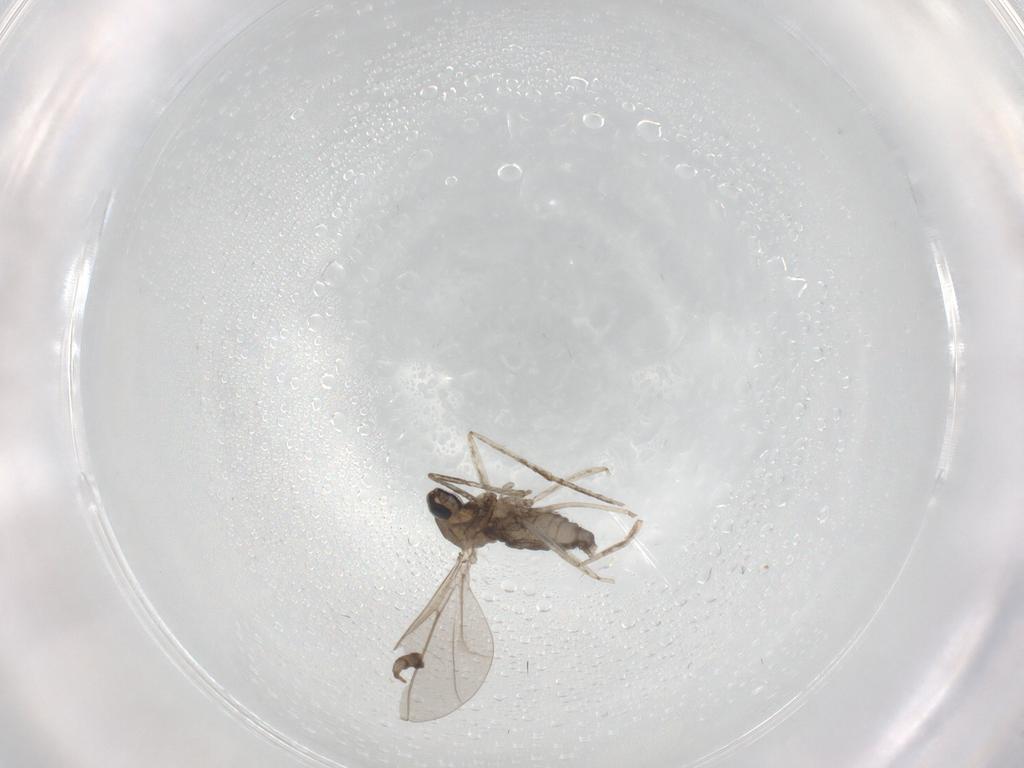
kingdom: Animalia
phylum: Arthropoda
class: Insecta
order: Diptera
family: Cecidomyiidae
